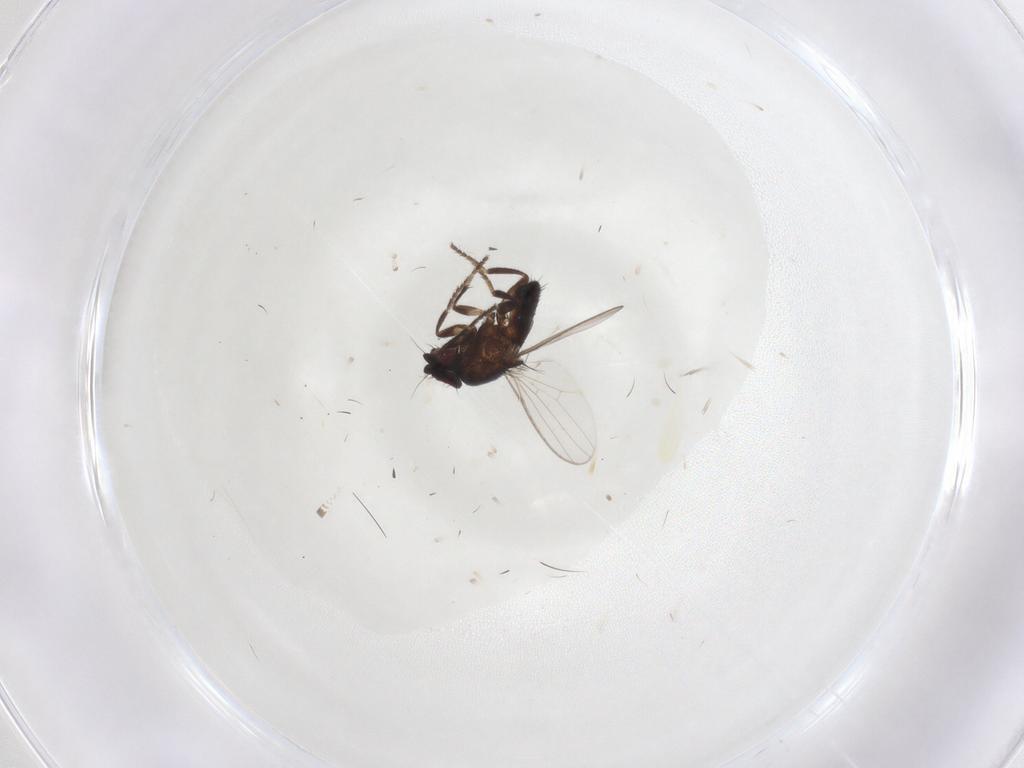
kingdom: Animalia
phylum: Arthropoda
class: Insecta
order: Diptera
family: Milichiidae
